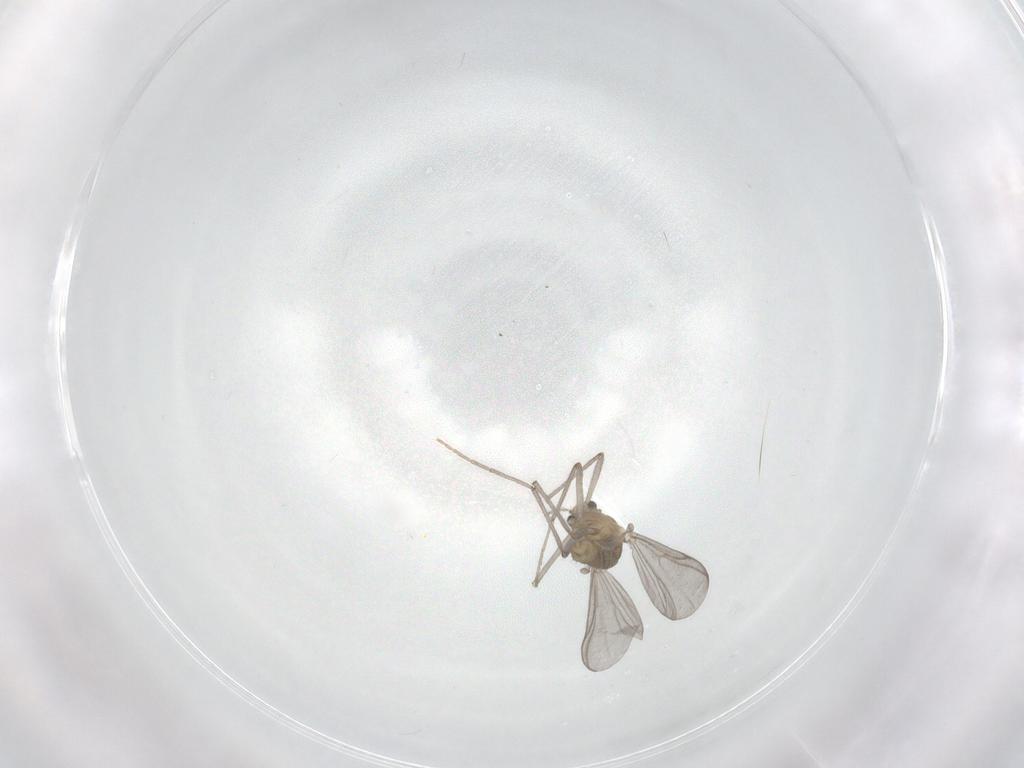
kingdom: Animalia
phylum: Arthropoda
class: Insecta
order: Diptera
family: Chironomidae
